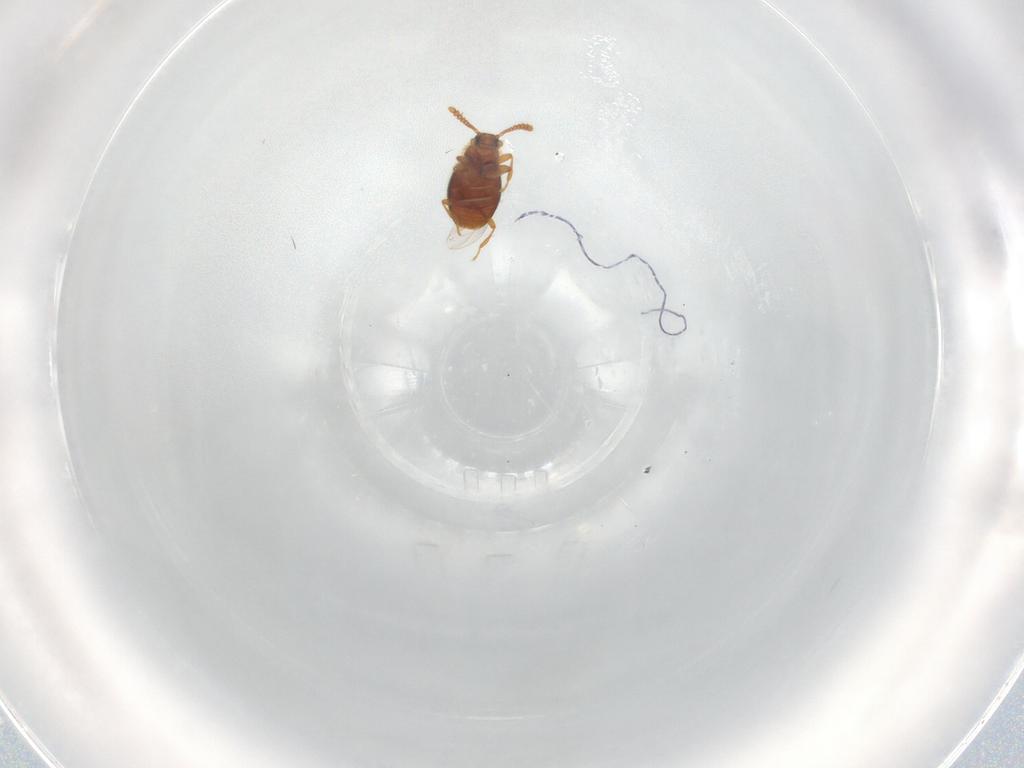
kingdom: Animalia
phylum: Arthropoda
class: Insecta
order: Coleoptera
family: Staphylinidae
